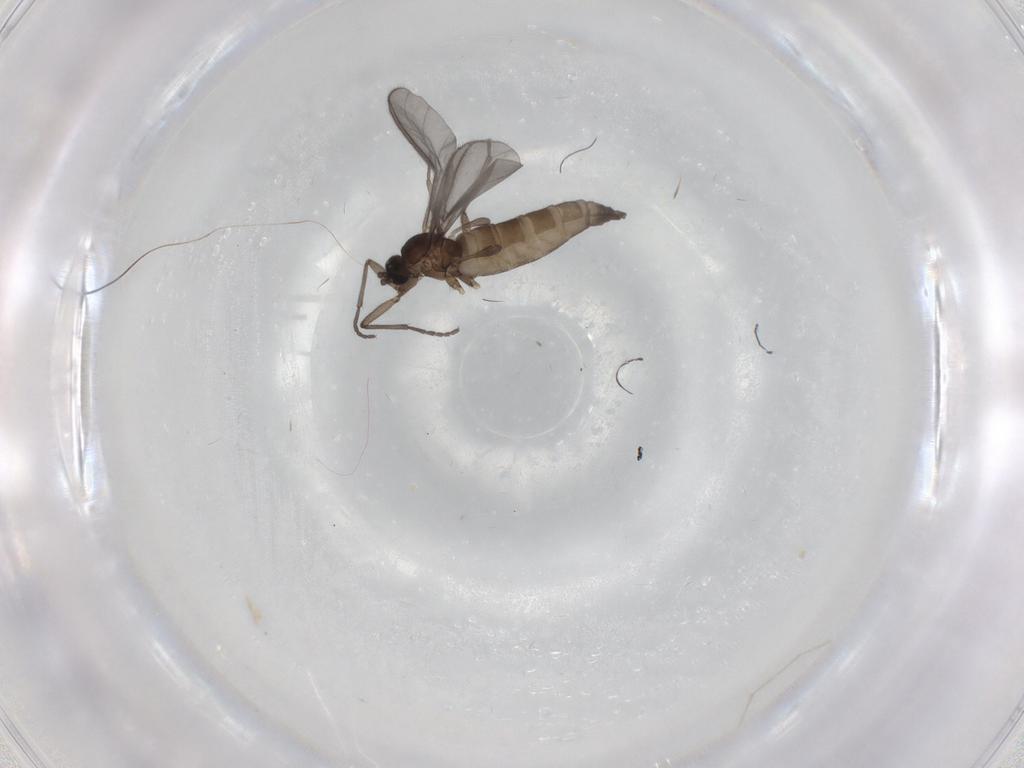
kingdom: Animalia
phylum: Arthropoda
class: Insecta
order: Diptera
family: Sciaridae
